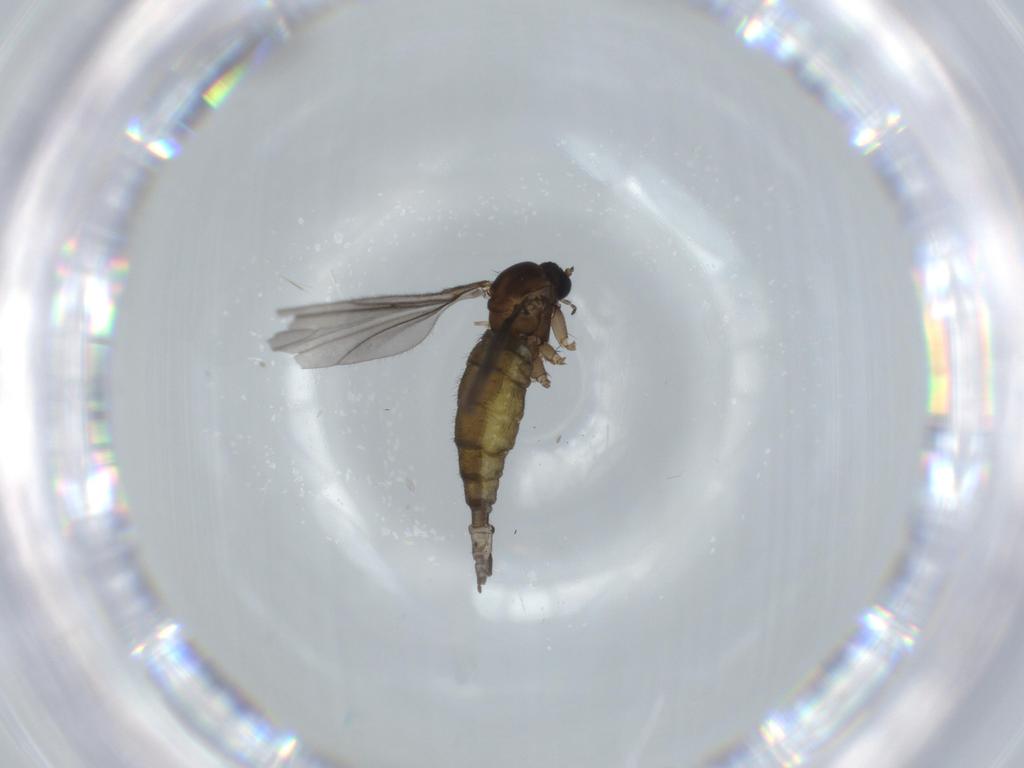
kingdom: Animalia
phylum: Arthropoda
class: Insecta
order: Diptera
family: Sciaridae
